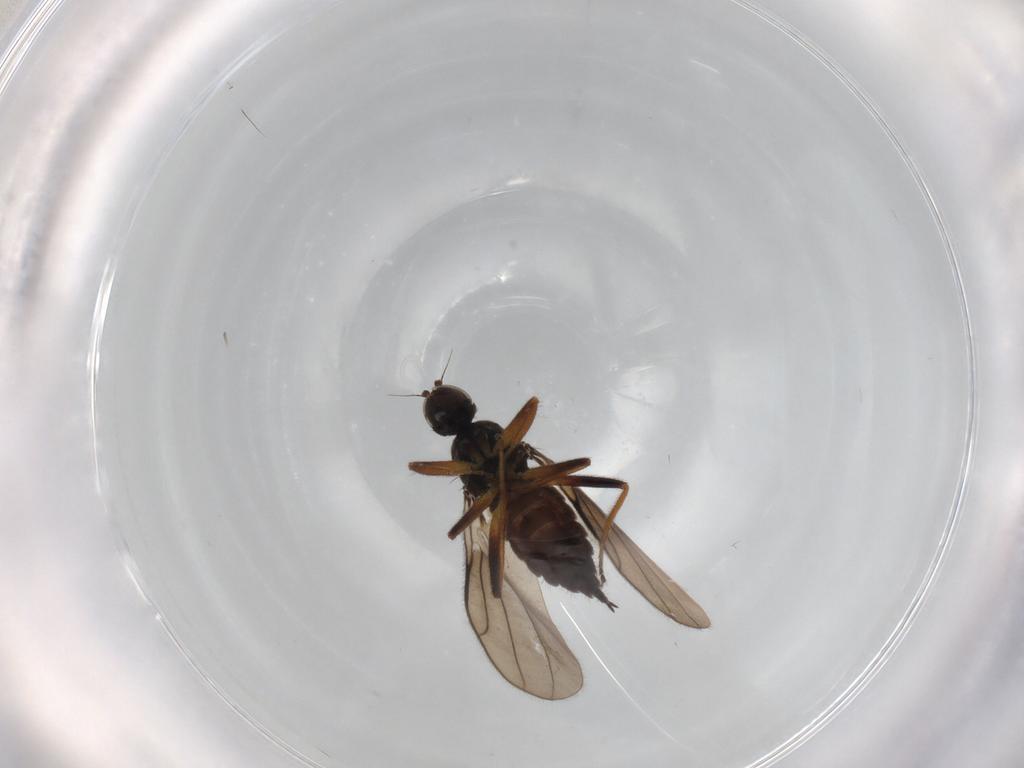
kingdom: Animalia
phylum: Arthropoda
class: Insecta
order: Diptera
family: Hybotidae
